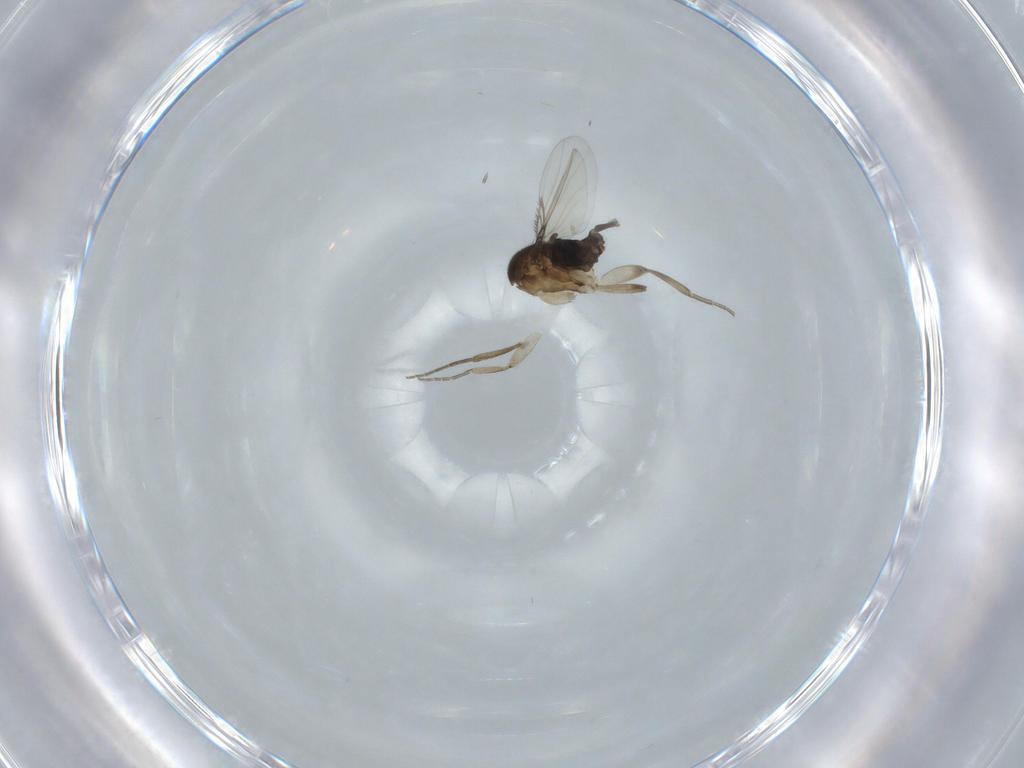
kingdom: Animalia
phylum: Arthropoda
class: Insecta
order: Diptera
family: Phoridae
